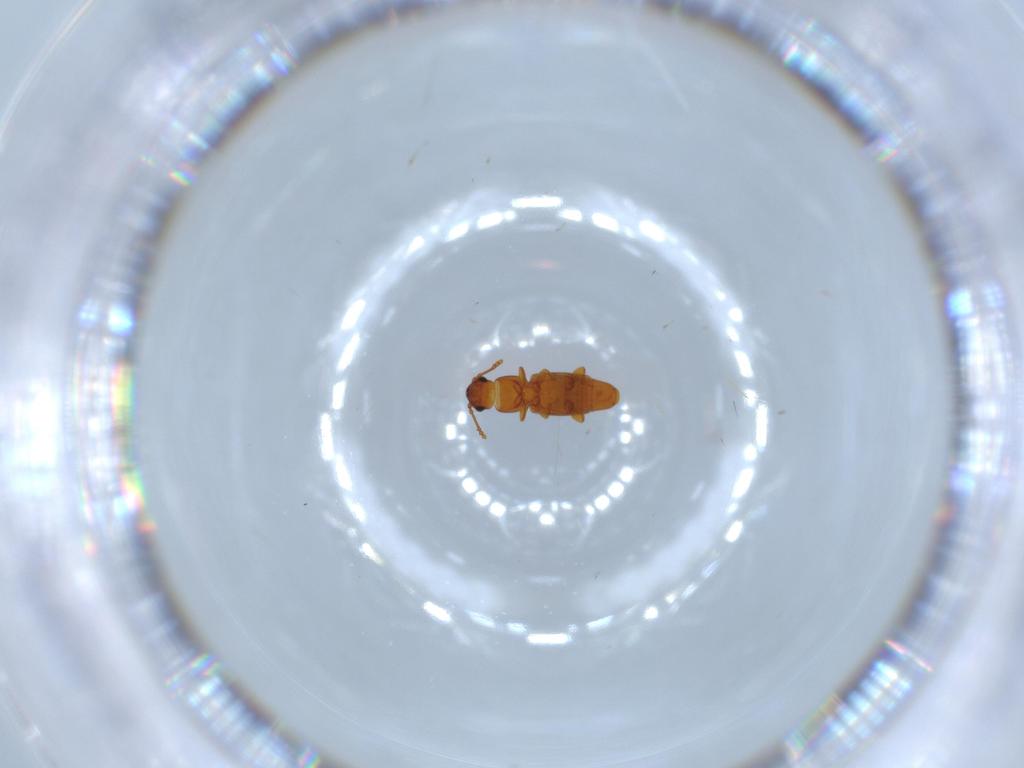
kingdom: Animalia
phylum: Arthropoda
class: Insecta
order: Coleoptera
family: Smicripidae
